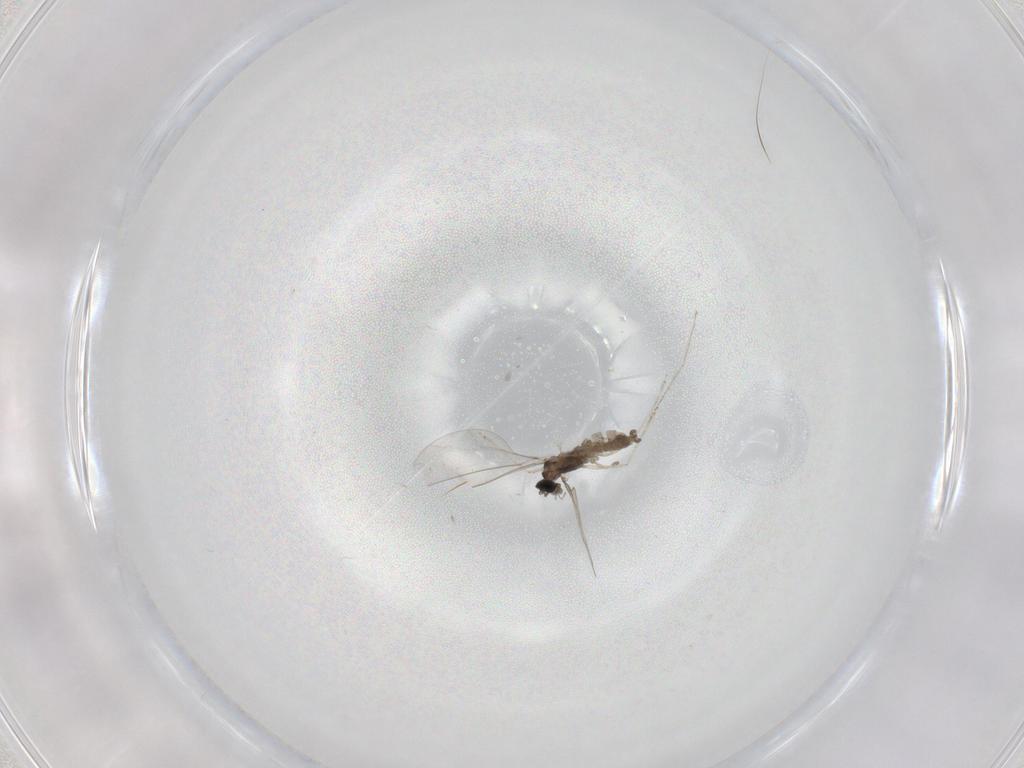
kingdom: Animalia
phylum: Arthropoda
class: Insecta
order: Diptera
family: Cecidomyiidae
